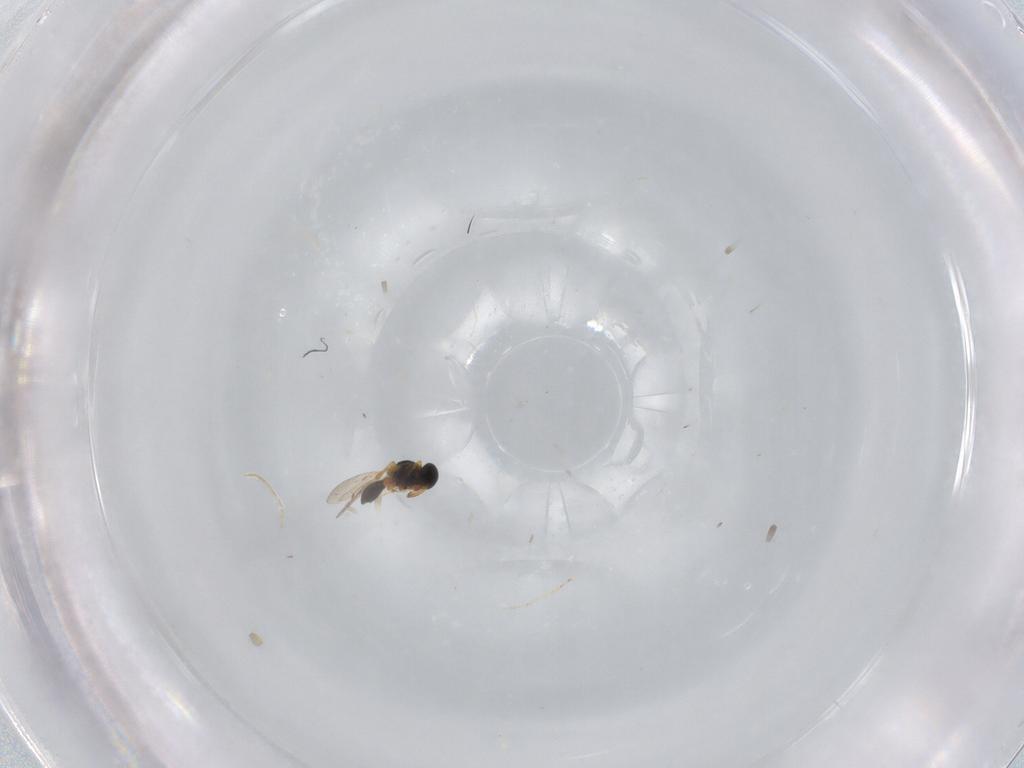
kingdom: Animalia
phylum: Arthropoda
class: Insecta
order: Hymenoptera
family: Platygastridae
